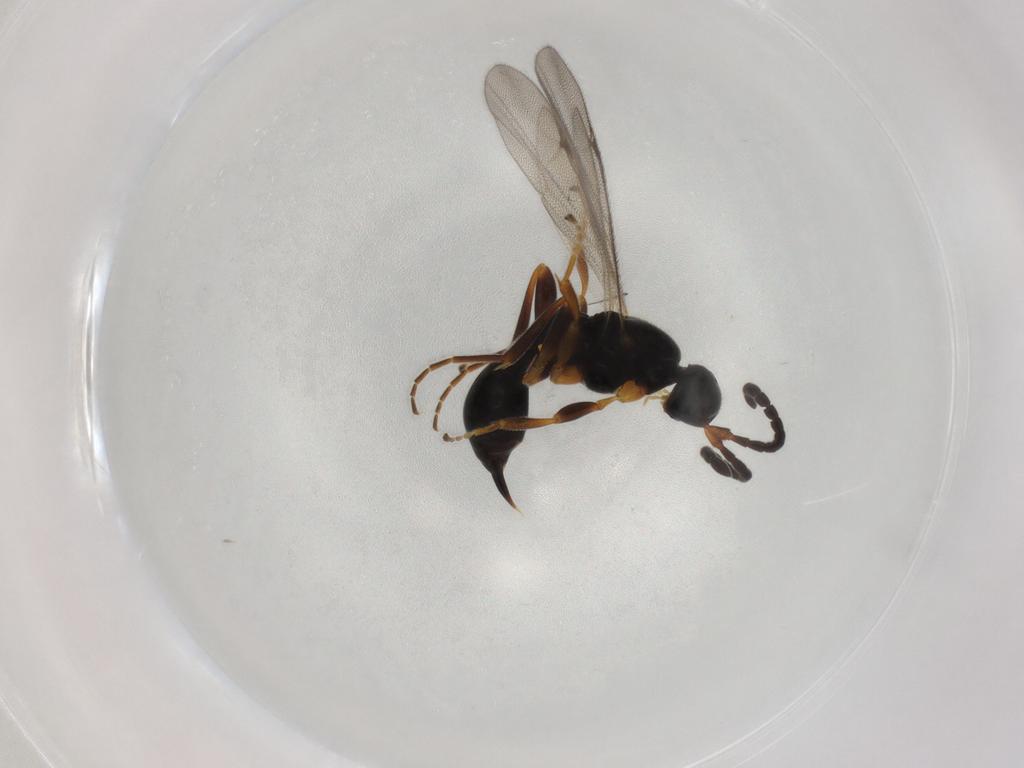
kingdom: Animalia
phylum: Arthropoda
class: Insecta
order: Hymenoptera
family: Proctotrupidae
